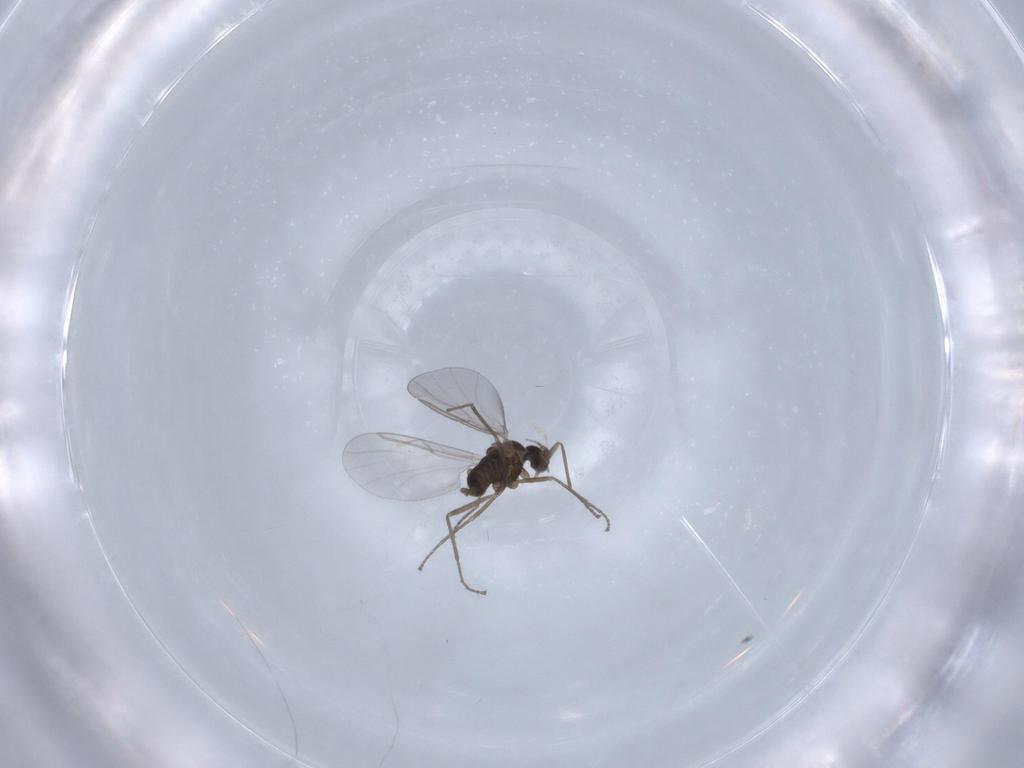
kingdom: Animalia
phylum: Arthropoda
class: Insecta
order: Diptera
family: Cecidomyiidae
